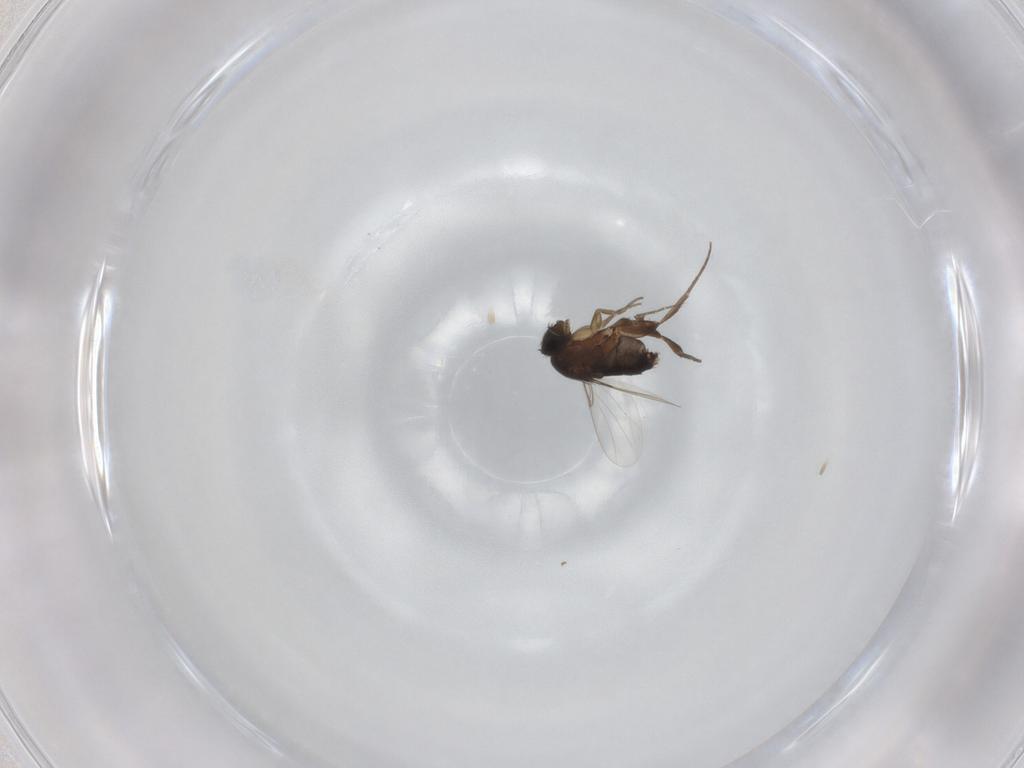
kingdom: Animalia
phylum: Arthropoda
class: Insecta
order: Diptera
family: Phoridae
